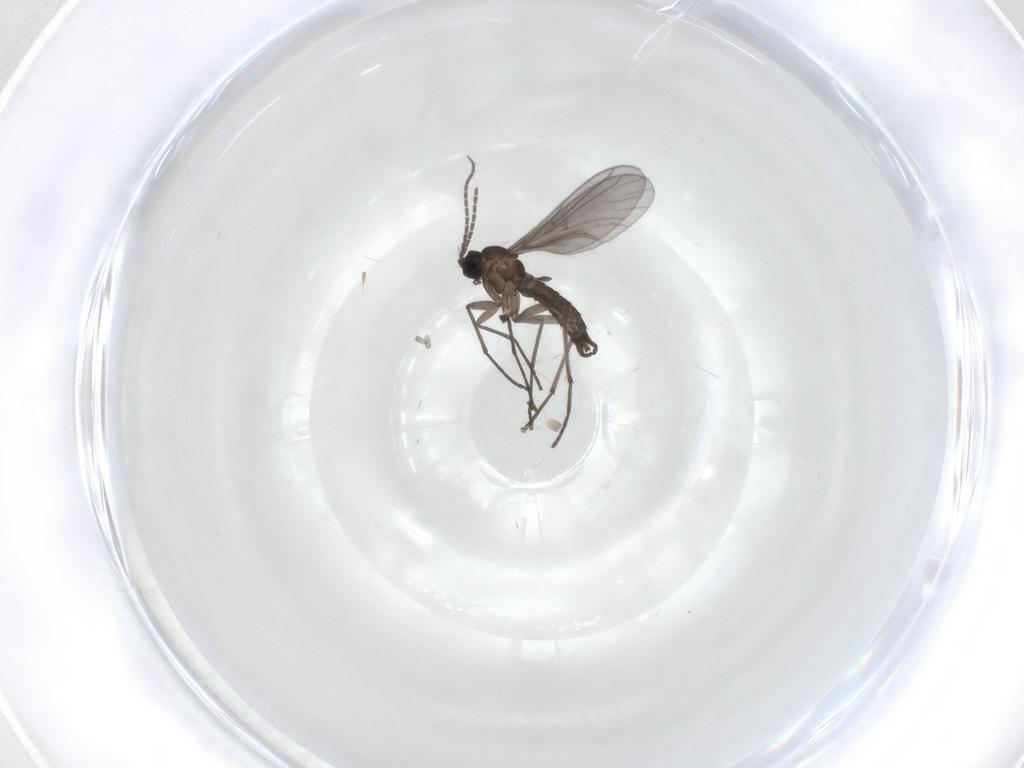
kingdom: Animalia
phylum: Arthropoda
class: Insecta
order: Diptera
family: Sciaridae
